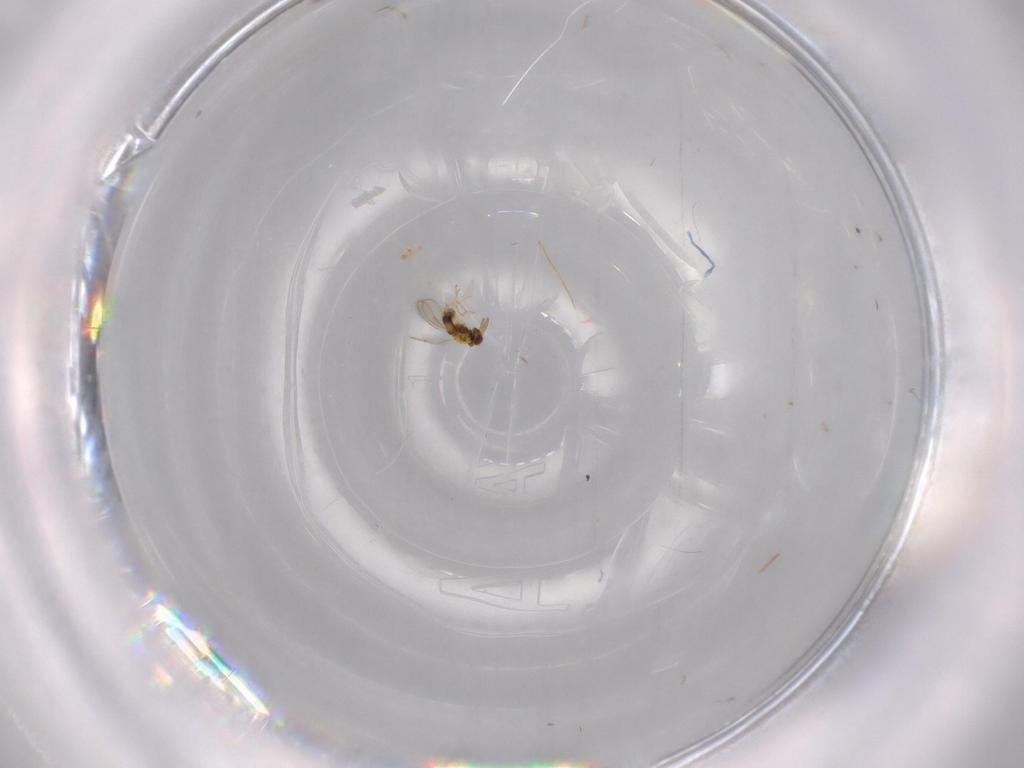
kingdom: Animalia
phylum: Arthropoda
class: Insecta
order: Hymenoptera
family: Aphelinidae
